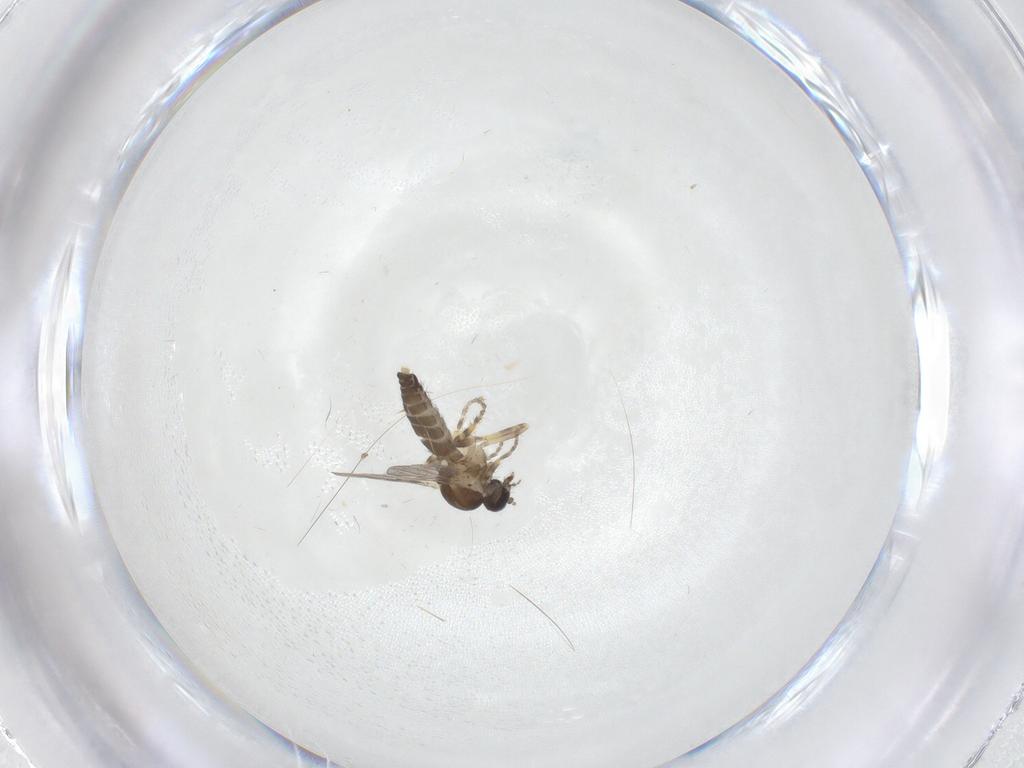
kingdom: Animalia
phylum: Arthropoda
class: Insecta
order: Diptera
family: Ceratopogonidae
